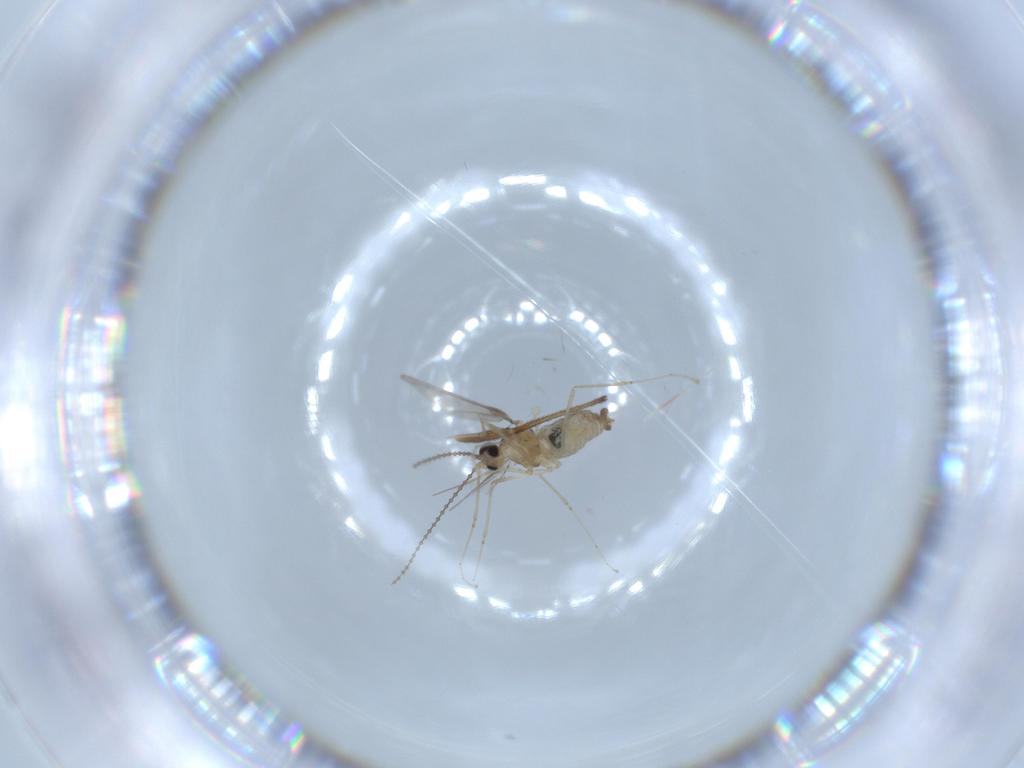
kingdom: Animalia
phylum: Arthropoda
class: Insecta
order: Diptera
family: Cecidomyiidae
